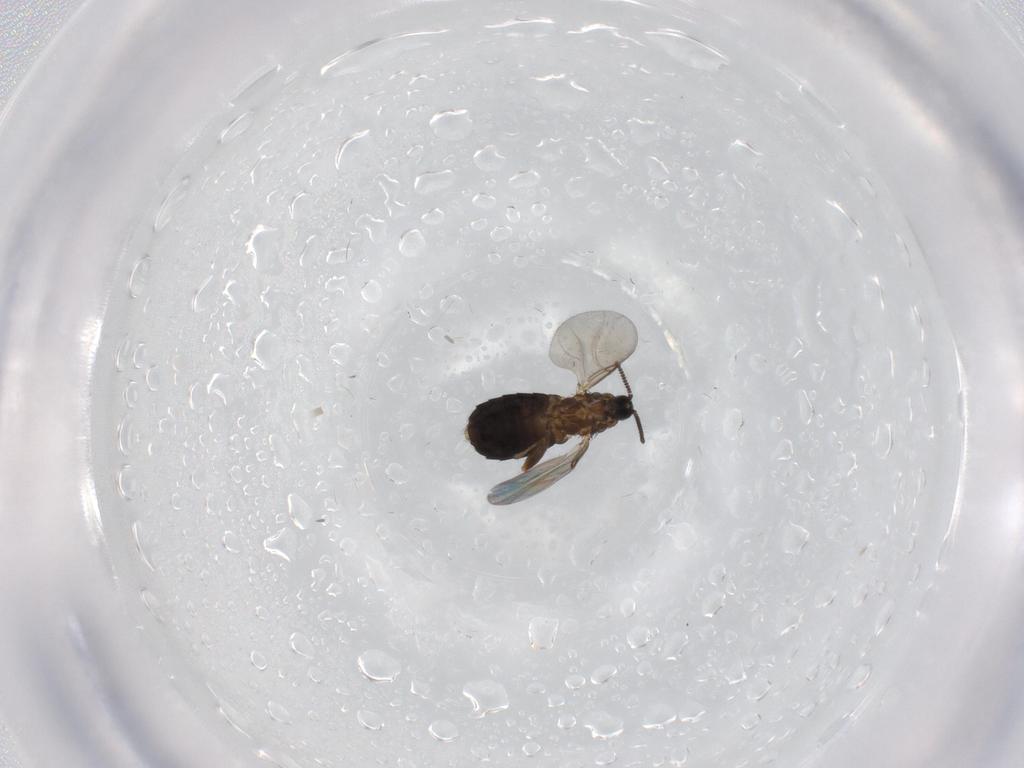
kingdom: Animalia
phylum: Arthropoda
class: Insecta
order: Diptera
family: Scatopsidae
